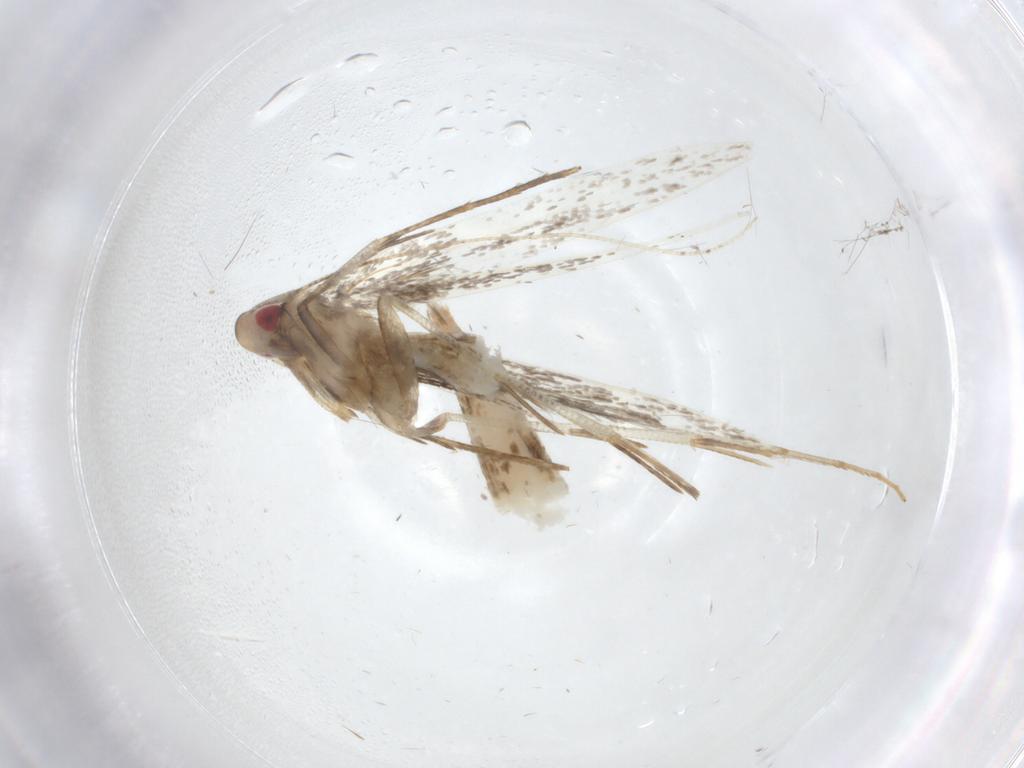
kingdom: Animalia
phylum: Arthropoda
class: Insecta
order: Lepidoptera
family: Cosmopterigidae
